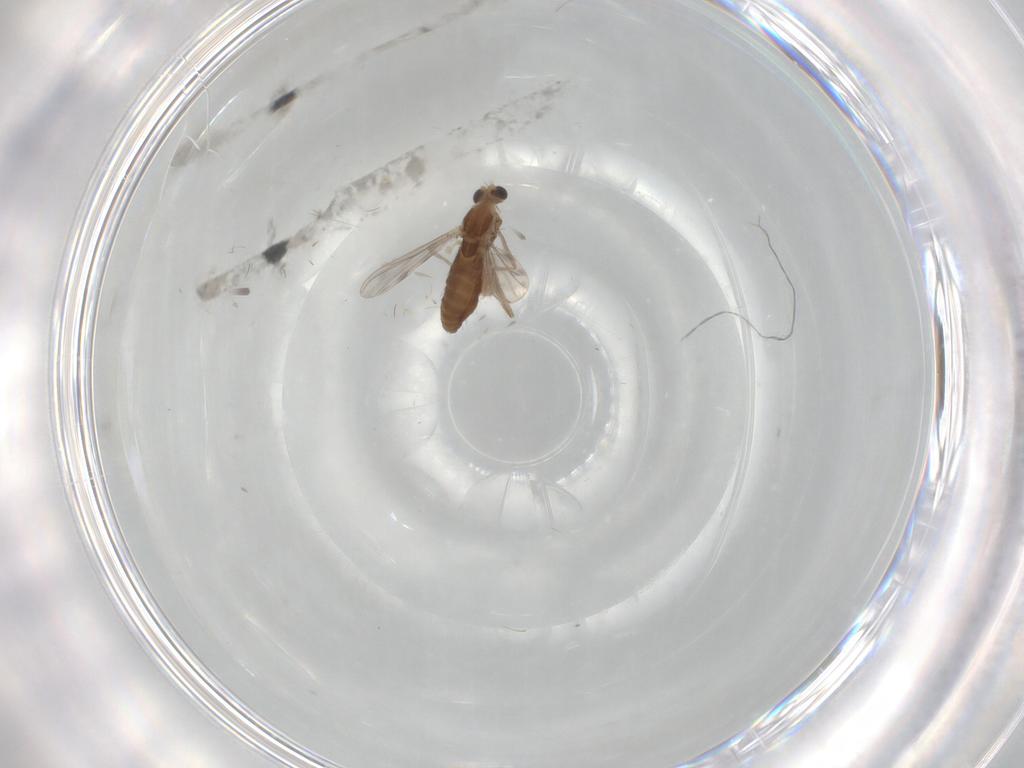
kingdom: Animalia
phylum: Arthropoda
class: Insecta
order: Diptera
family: Chironomidae
